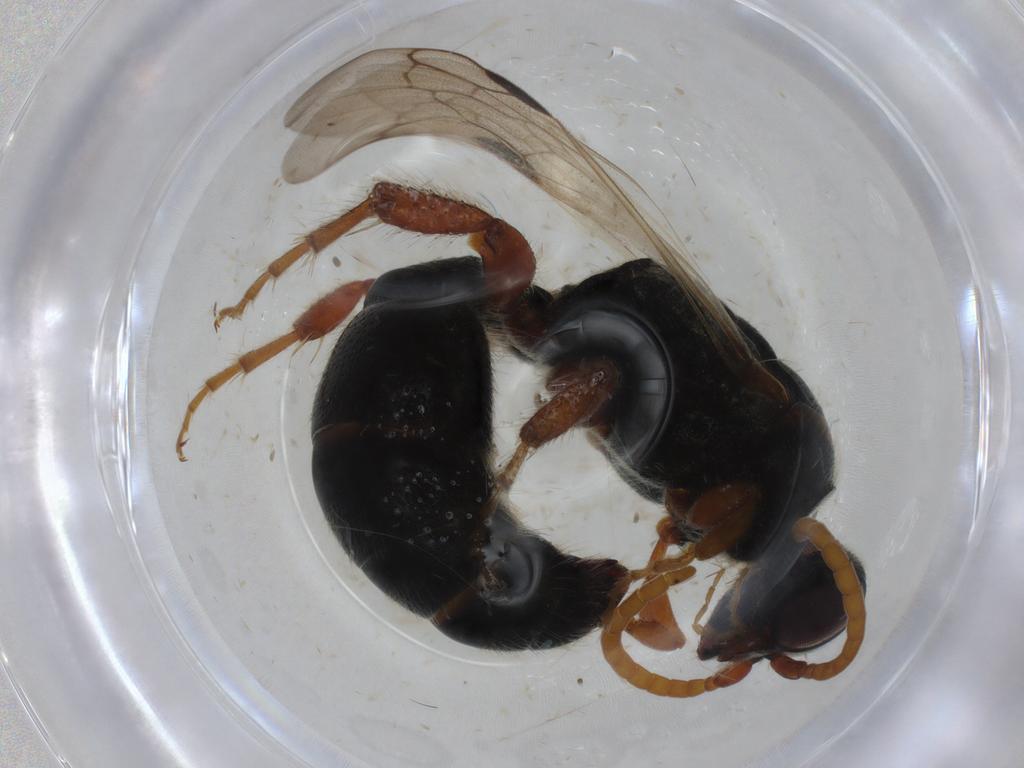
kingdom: Animalia
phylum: Arthropoda
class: Insecta
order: Hymenoptera
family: Tiphiidae
